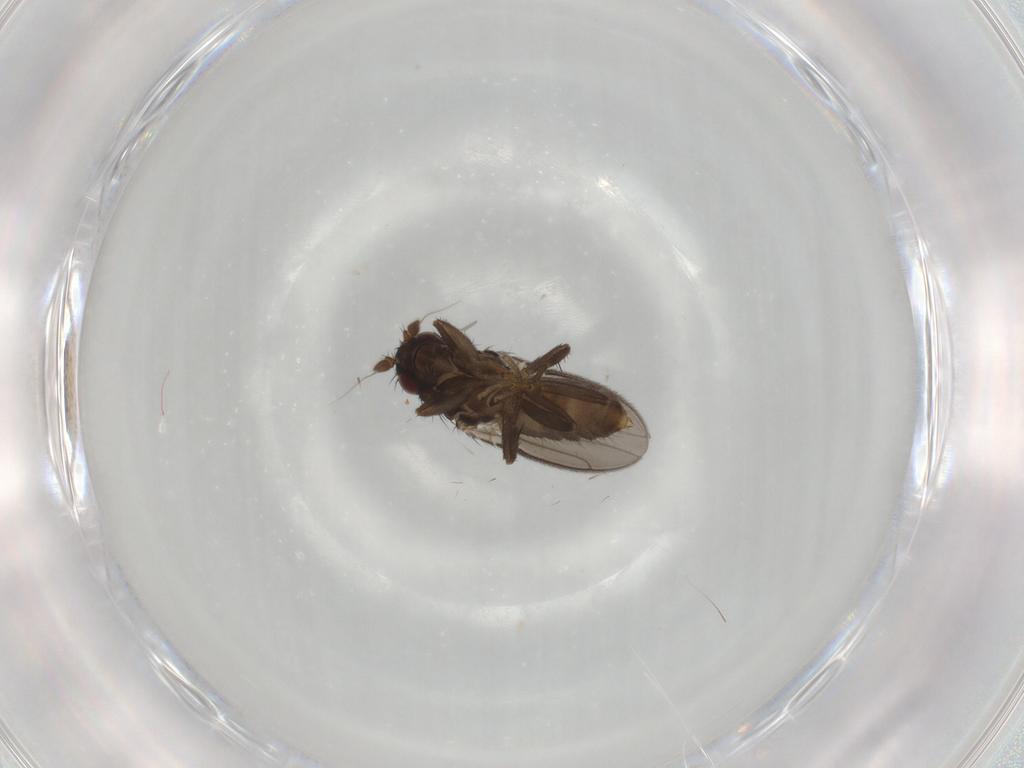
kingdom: Animalia
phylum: Arthropoda
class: Insecta
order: Diptera
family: Sphaeroceridae
